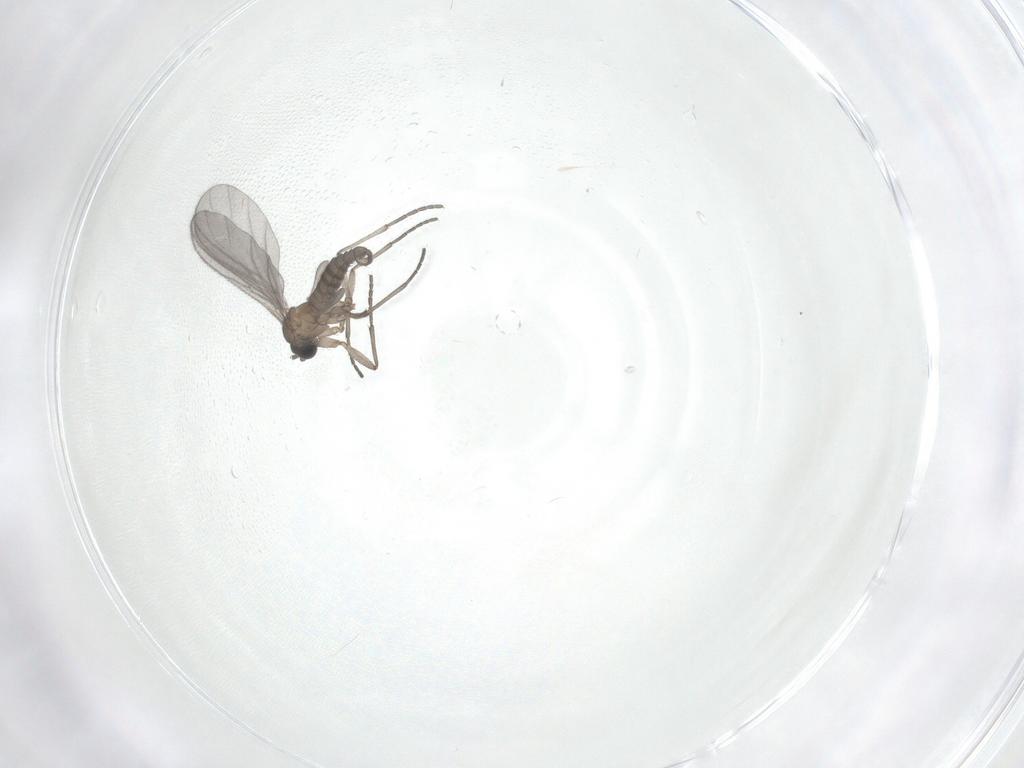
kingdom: Animalia
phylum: Arthropoda
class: Insecta
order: Diptera
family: Sciaridae
